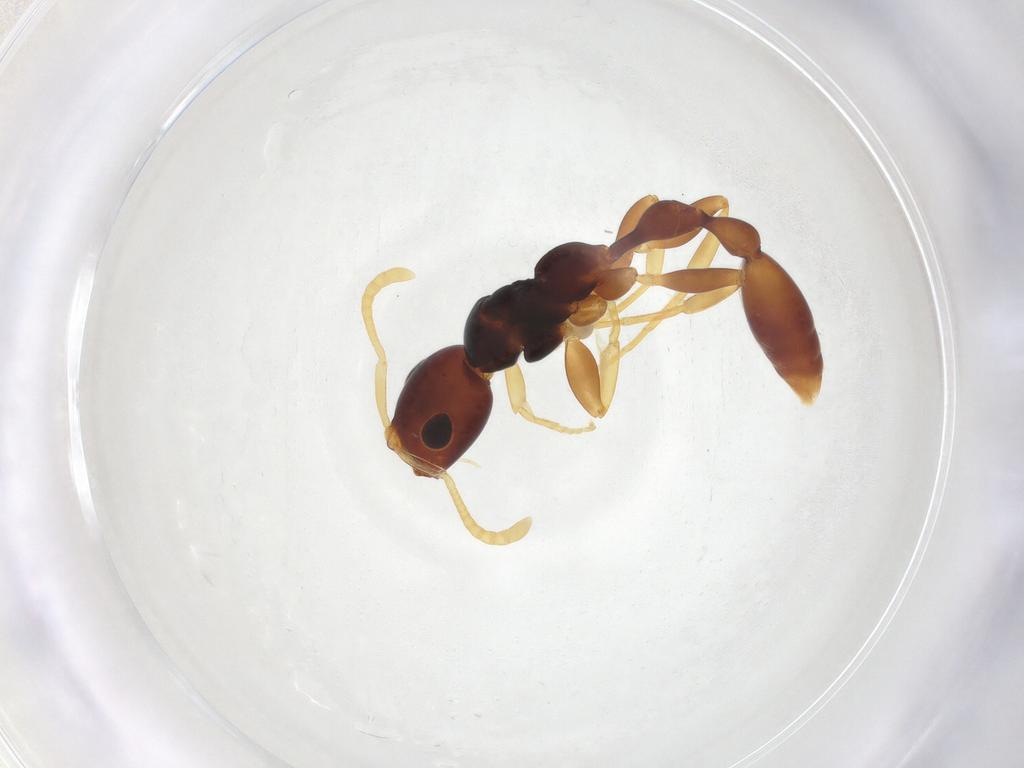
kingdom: Animalia
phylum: Arthropoda
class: Insecta
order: Hymenoptera
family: Formicidae
